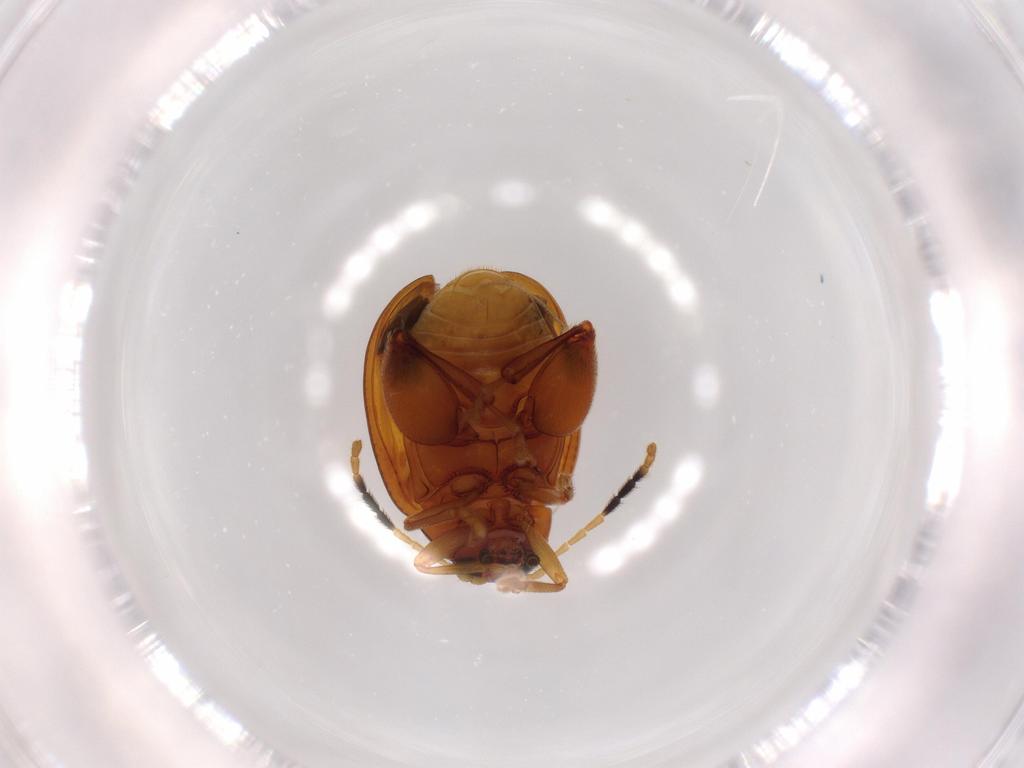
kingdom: Animalia
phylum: Arthropoda
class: Insecta
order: Coleoptera
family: Chrysomelidae
